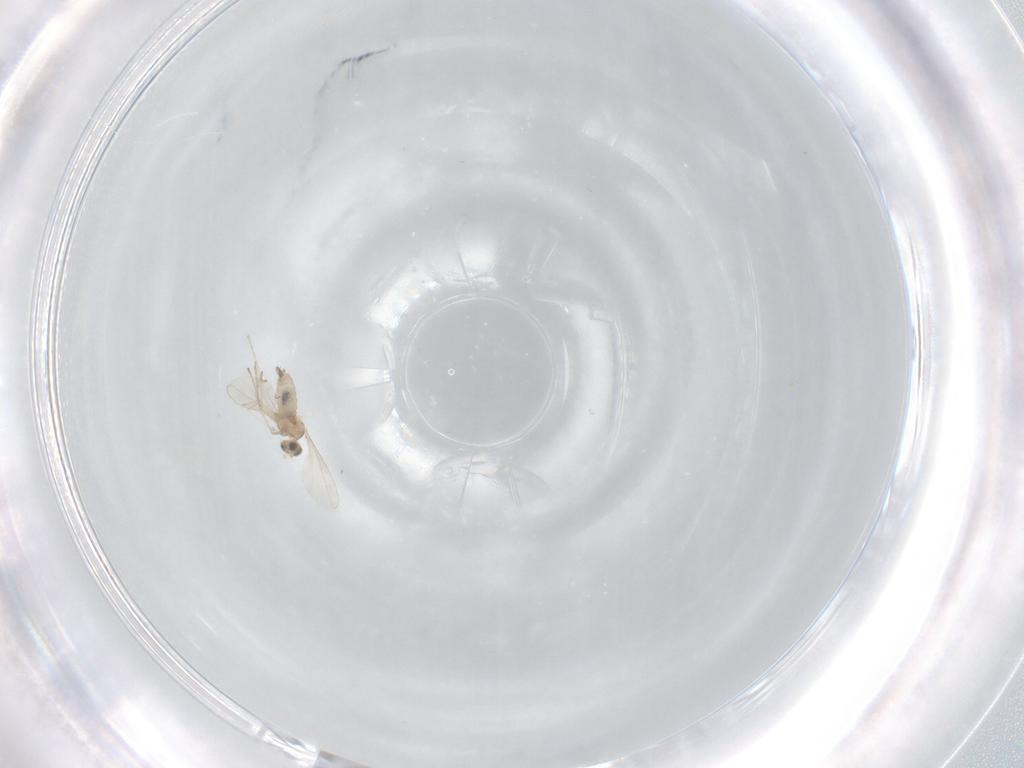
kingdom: Animalia
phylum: Arthropoda
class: Insecta
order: Diptera
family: Cecidomyiidae
